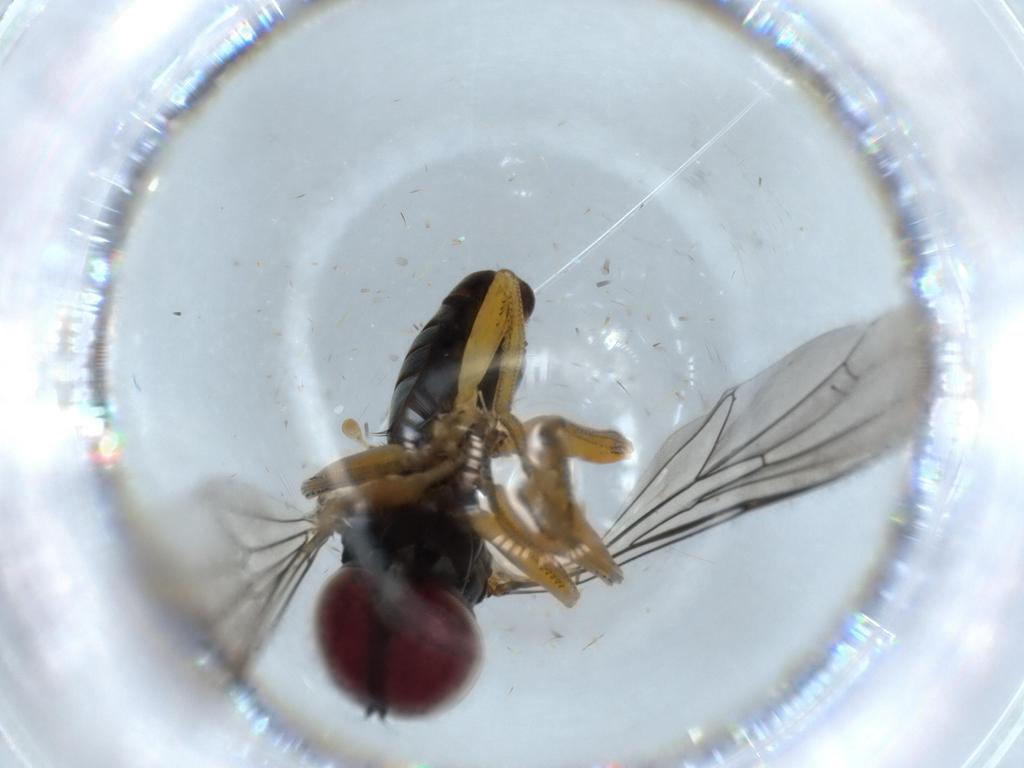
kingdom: Animalia
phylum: Arthropoda
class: Insecta
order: Diptera
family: Pipunculidae
